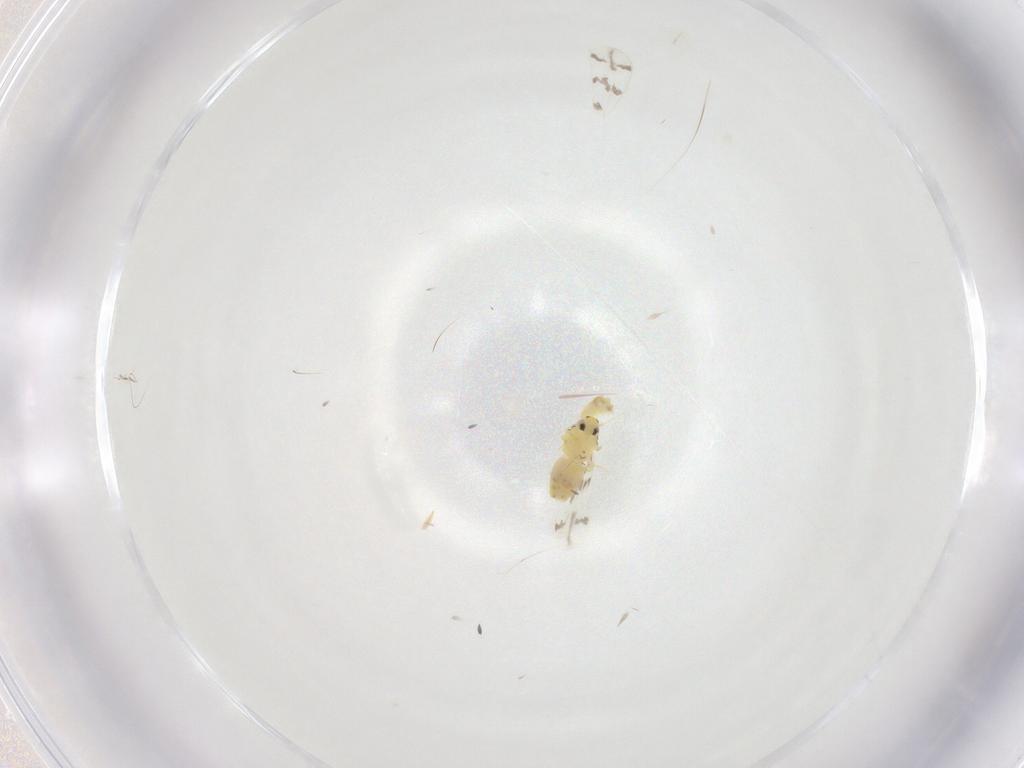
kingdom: Animalia
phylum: Arthropoda
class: Insecta
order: Hemiptera
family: Aleyrodidae
